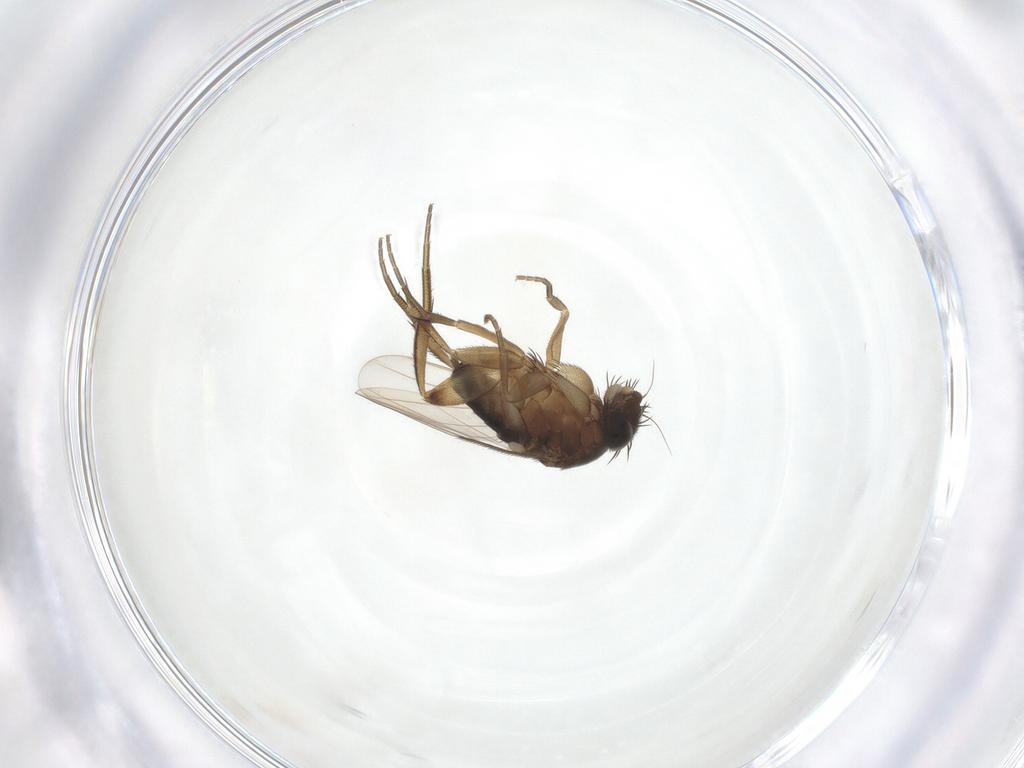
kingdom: Animalia
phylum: Arthropoda
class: Insecta
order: Diptera
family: Phoridae
